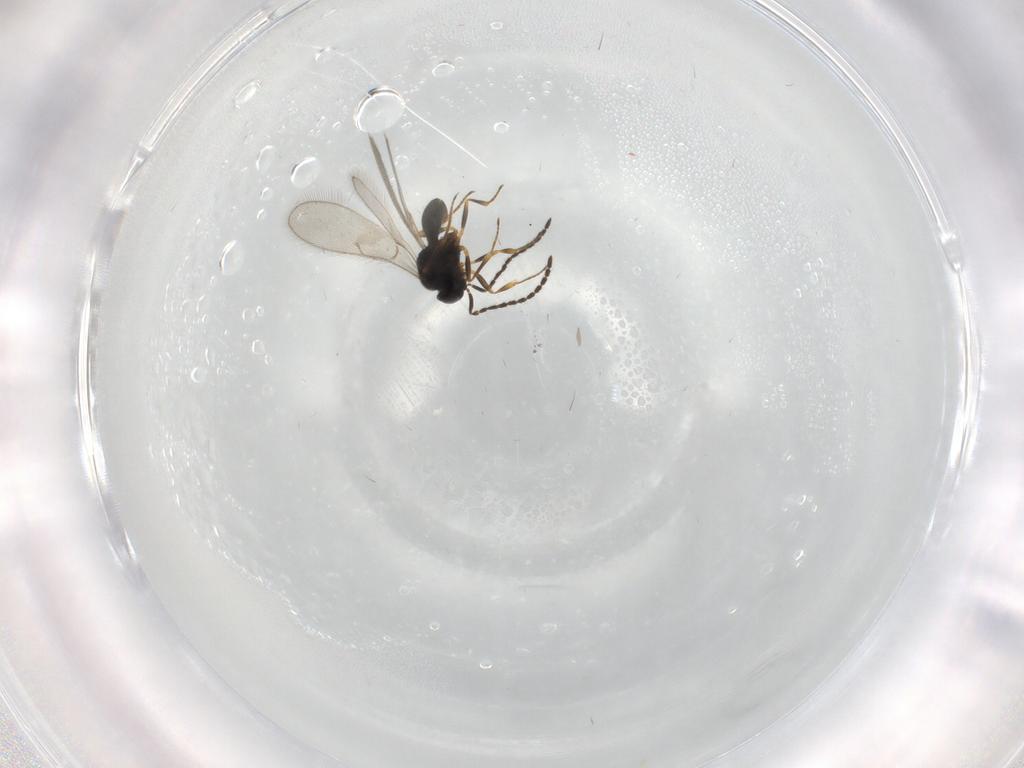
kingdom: Animalia
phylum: Arthropoda
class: Insecta
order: Hymenoptera
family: Scelionidae
